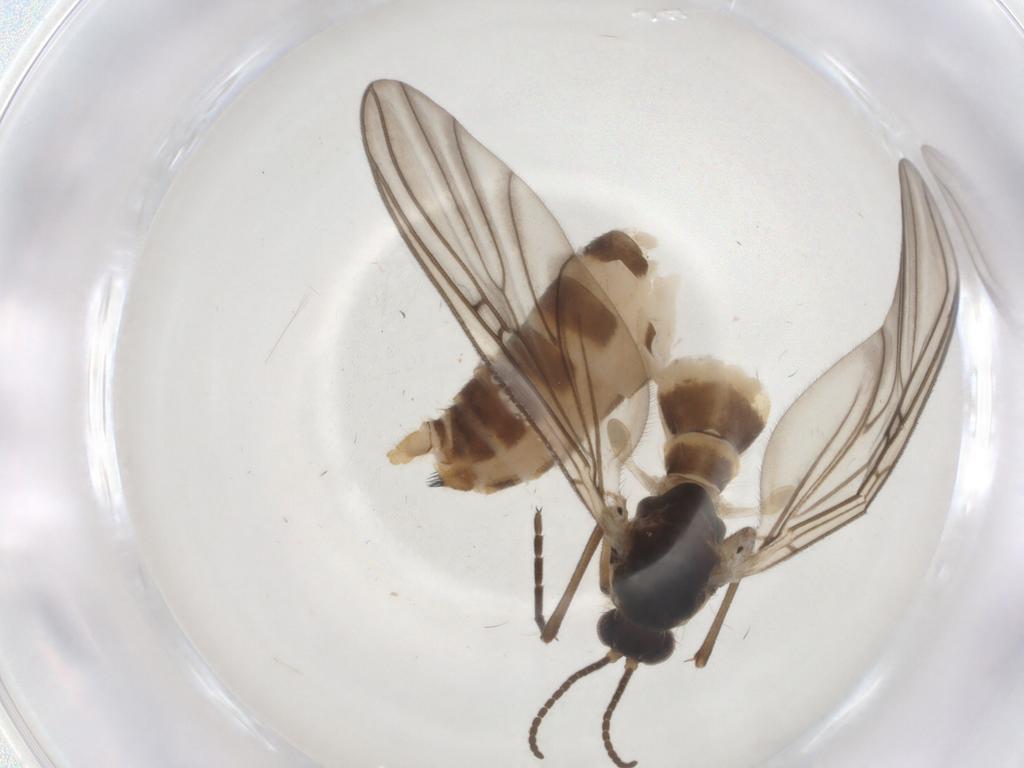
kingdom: Animalia
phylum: Arthropoda
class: Insecta
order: Diptera
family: Mycetophilidae
